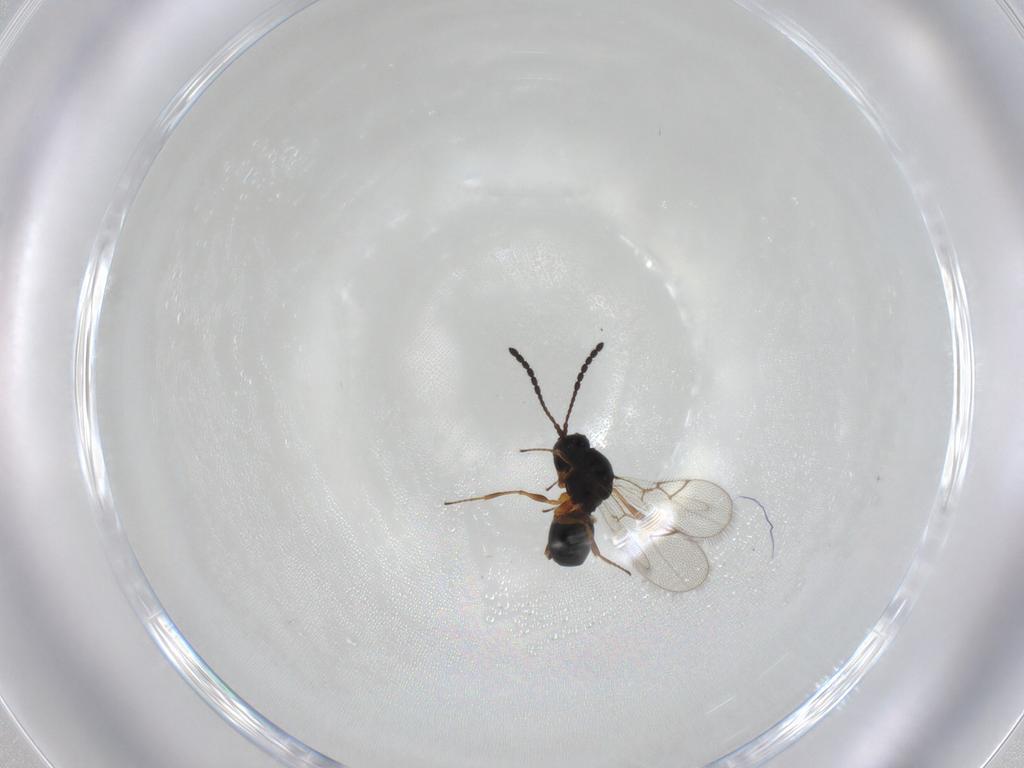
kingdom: Animalia
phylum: Arthropoda
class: Insecta
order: Hymenoptera
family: Figitidae
